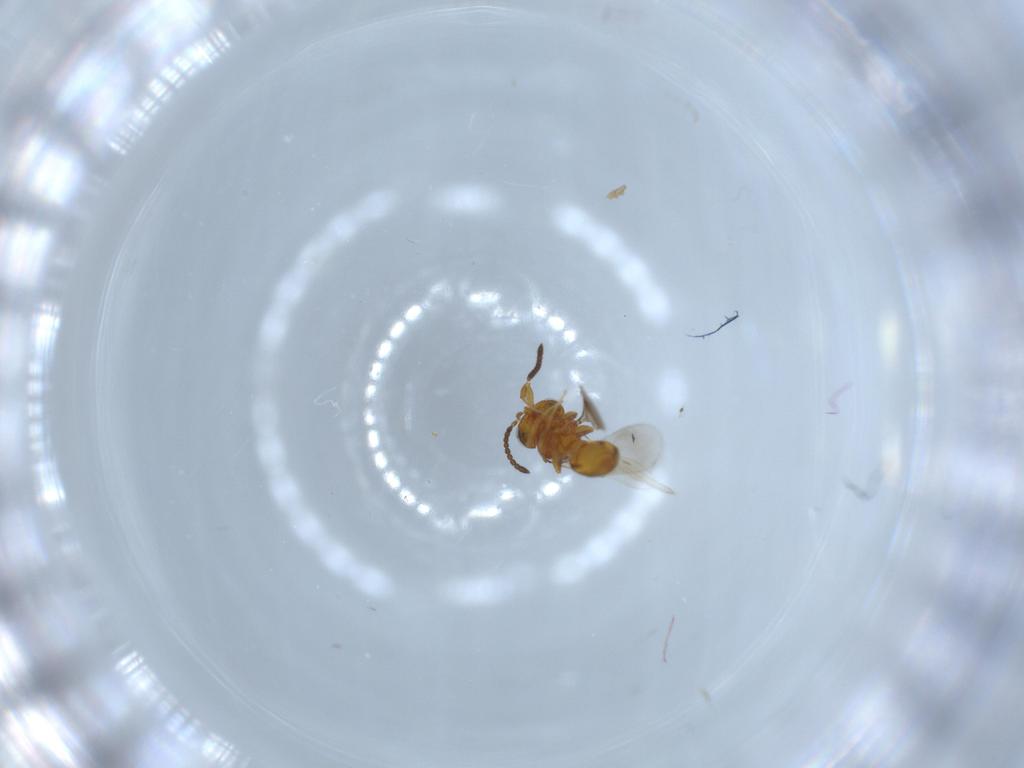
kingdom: Animalia
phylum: Arthropoda
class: Insecta
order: Hymenoptera
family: Scelionidae
